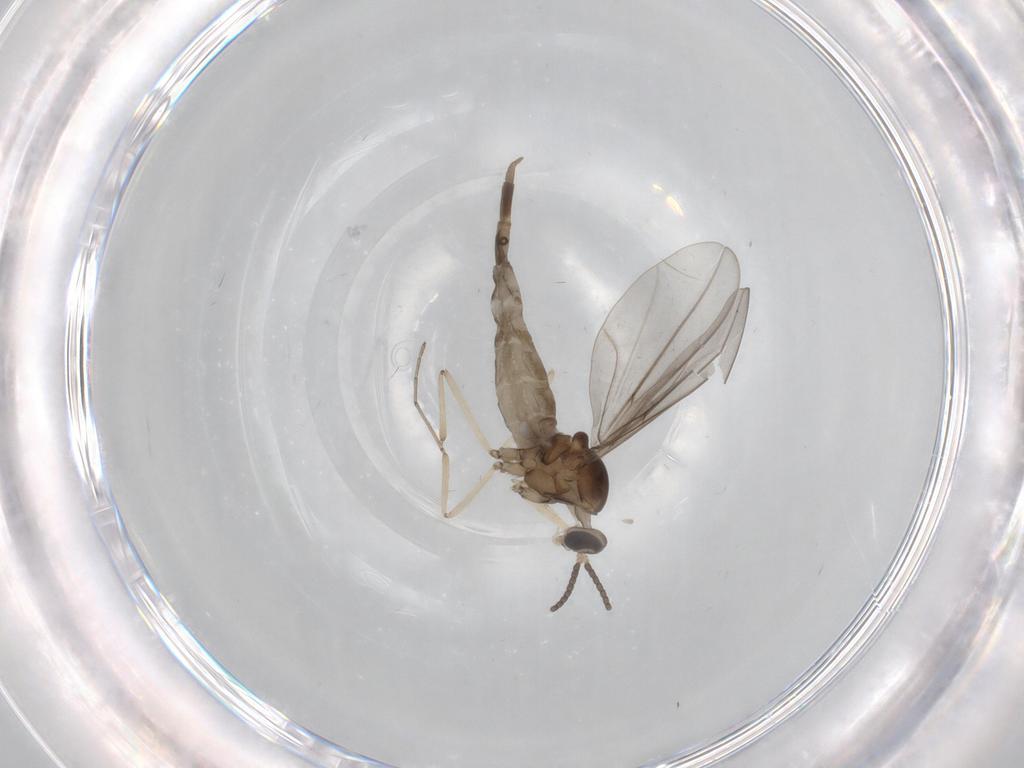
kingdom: Animalia
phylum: Arthropoda
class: Insecta
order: Diptera
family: Cecidomyiidae
